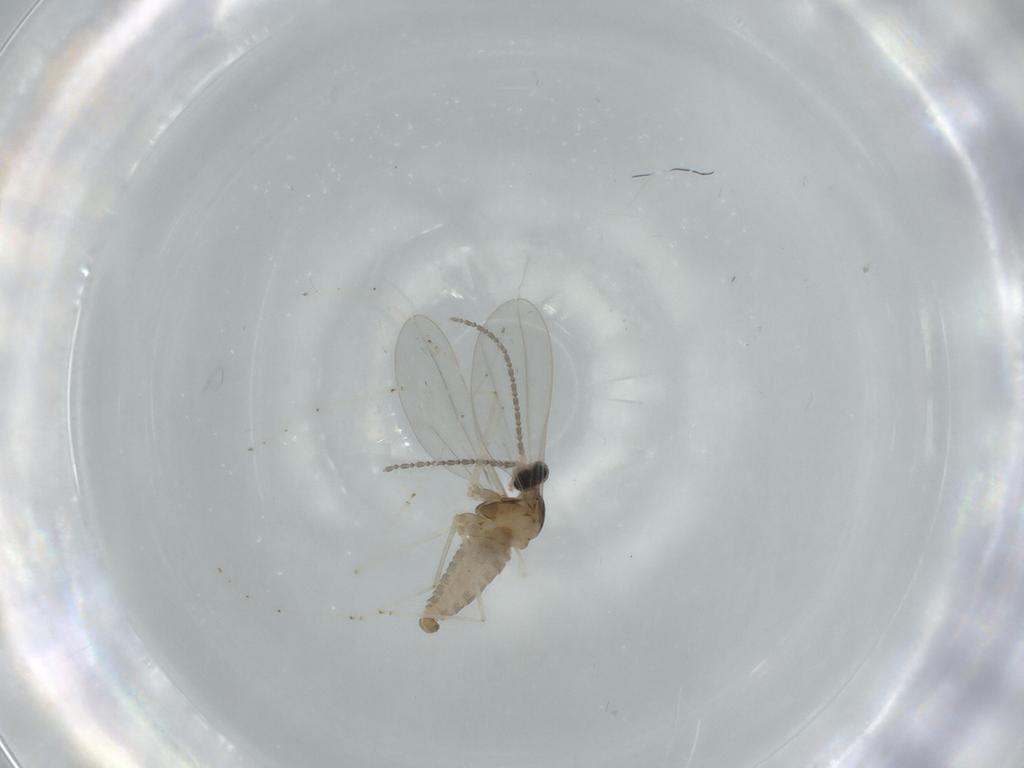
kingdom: Animalia
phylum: Arthropoda
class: Insecta
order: Diptera
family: Cecidomyiidae
